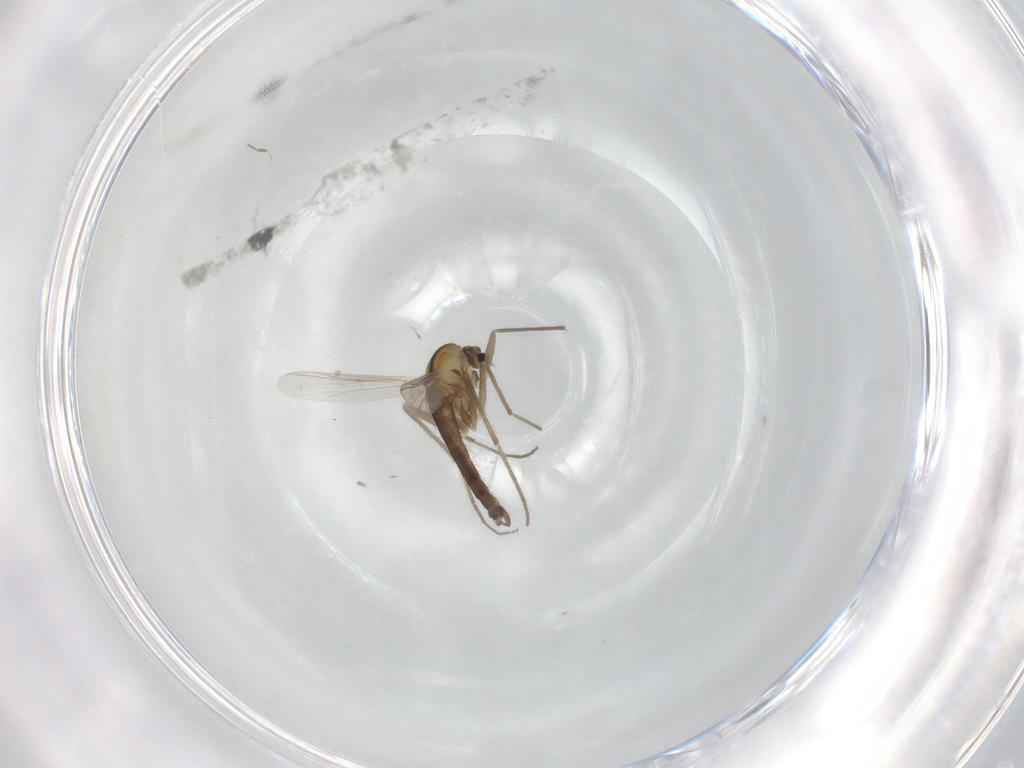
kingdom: Animalia
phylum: Arthropoda
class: Insecta
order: Diptera
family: Chironomidae
